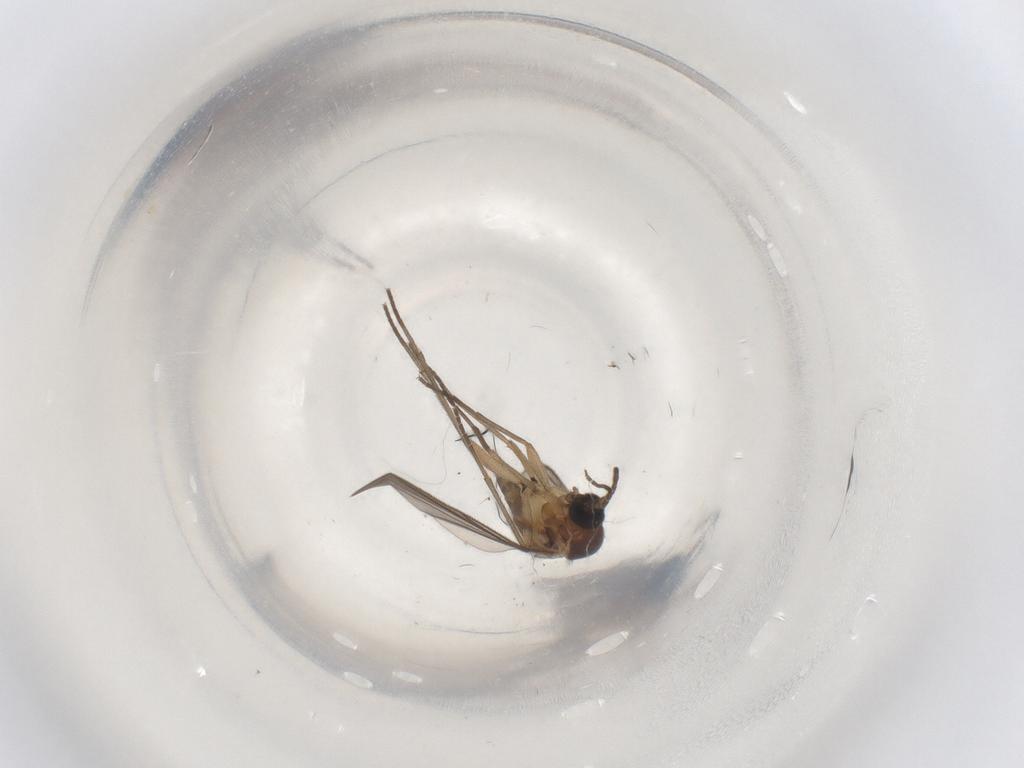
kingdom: Animalia
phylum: Arthropoda
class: Insecta
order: Diptera
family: Sciaridae
